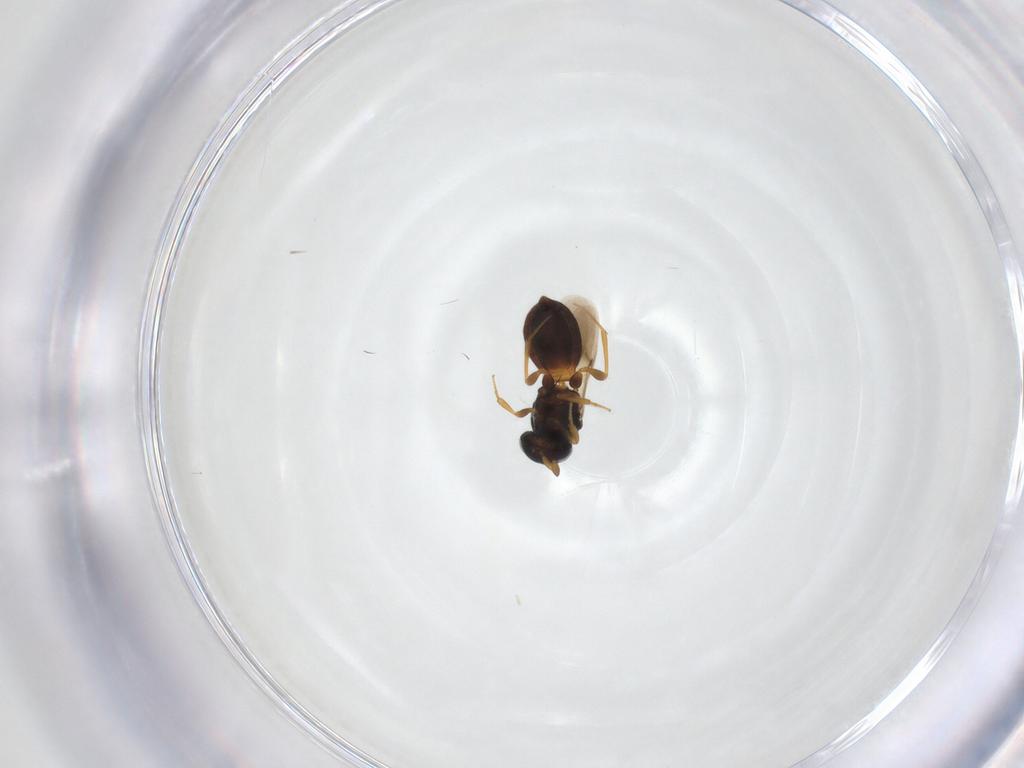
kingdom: Animalia
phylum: Arthropoda
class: Insecta
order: Hymenoptera
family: Scelionidae
